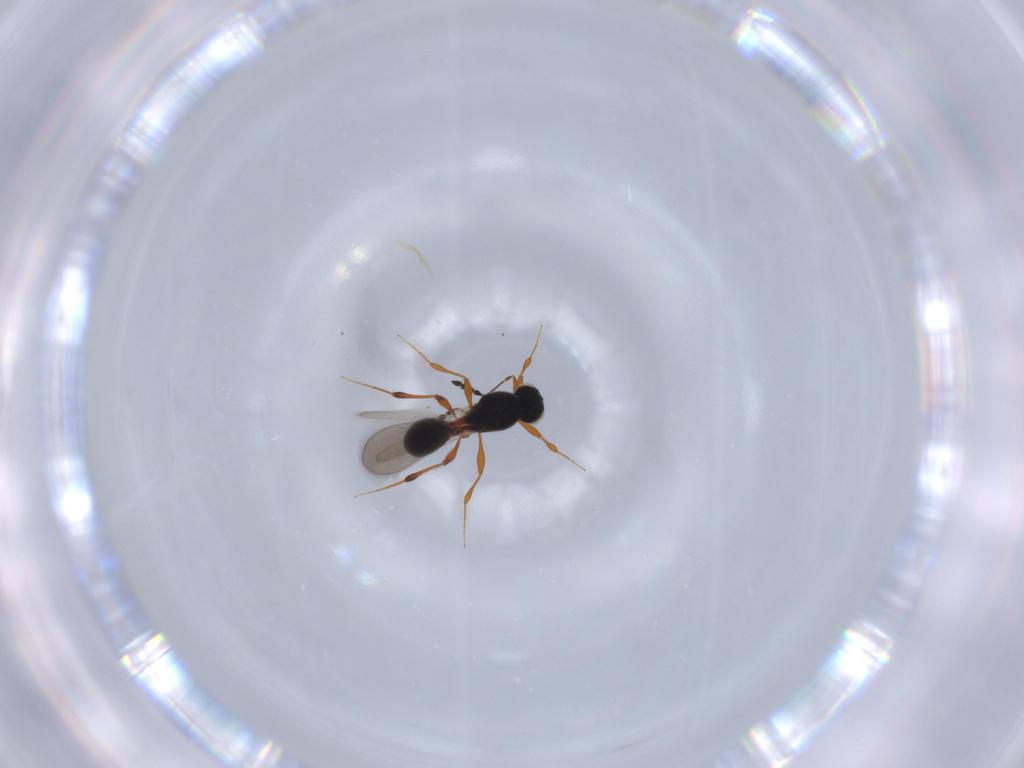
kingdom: Animalia
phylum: Arthropoda
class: Insecta
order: Hymenoptera
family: Platygastridae
